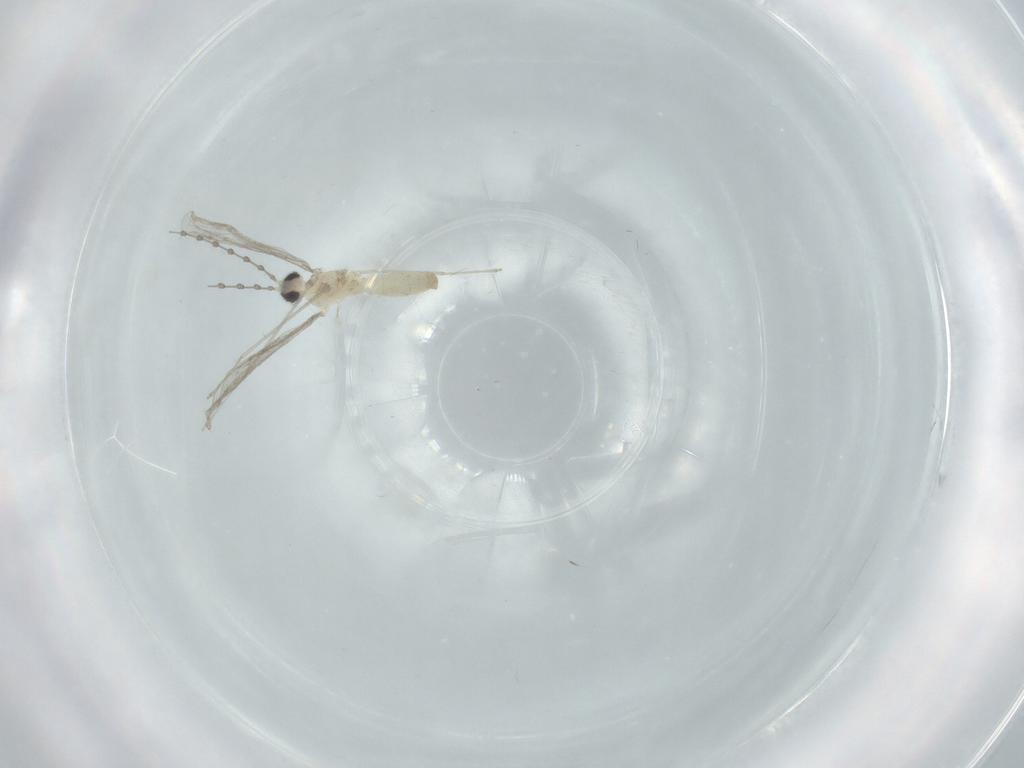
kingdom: Animalia
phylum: Arthropoda
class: Insecta
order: Diptera
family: Cecidomyiidae
